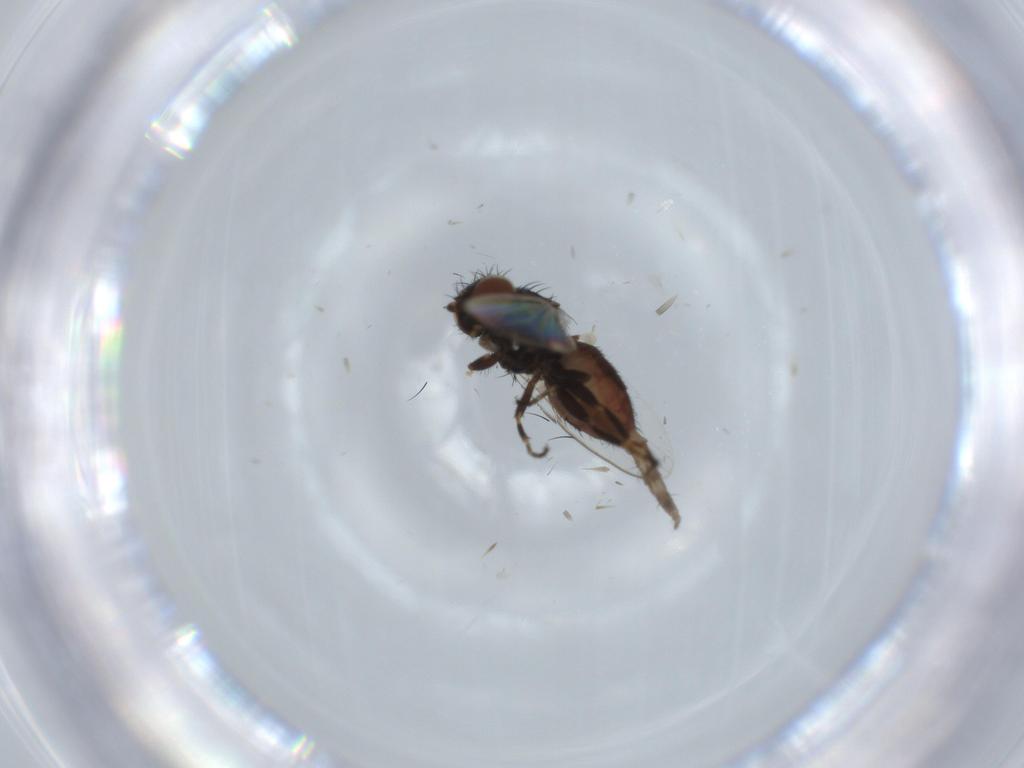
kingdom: Animalia
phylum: Arthropoda
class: Insecta
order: Diptera
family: Milichiidae
